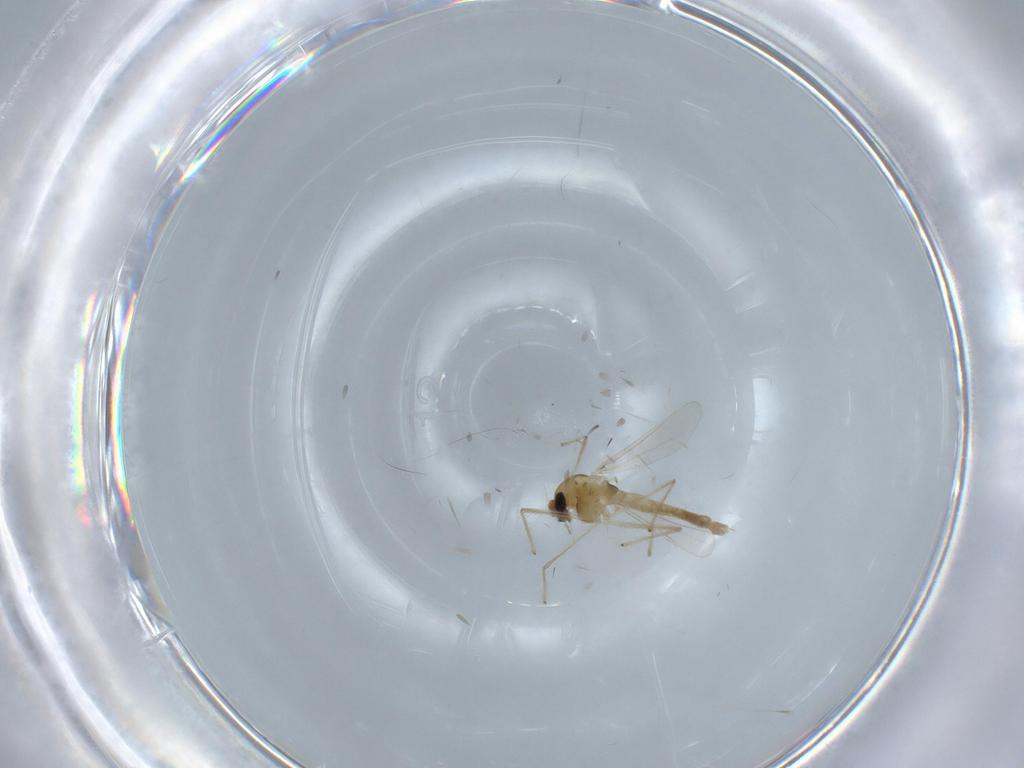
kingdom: Animalia
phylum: Arthropoda
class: Insecta
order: Diptera
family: Chironomidae
